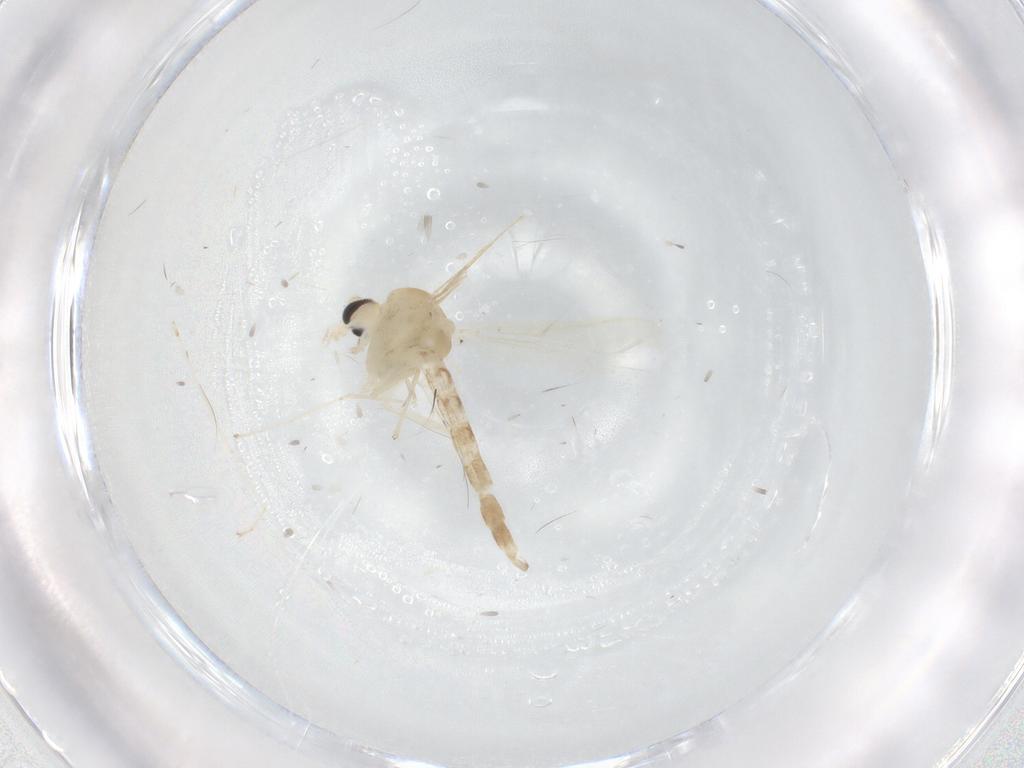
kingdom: Animalia
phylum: Arthropoda
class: Insecta
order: Diptera
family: Chironomidae
